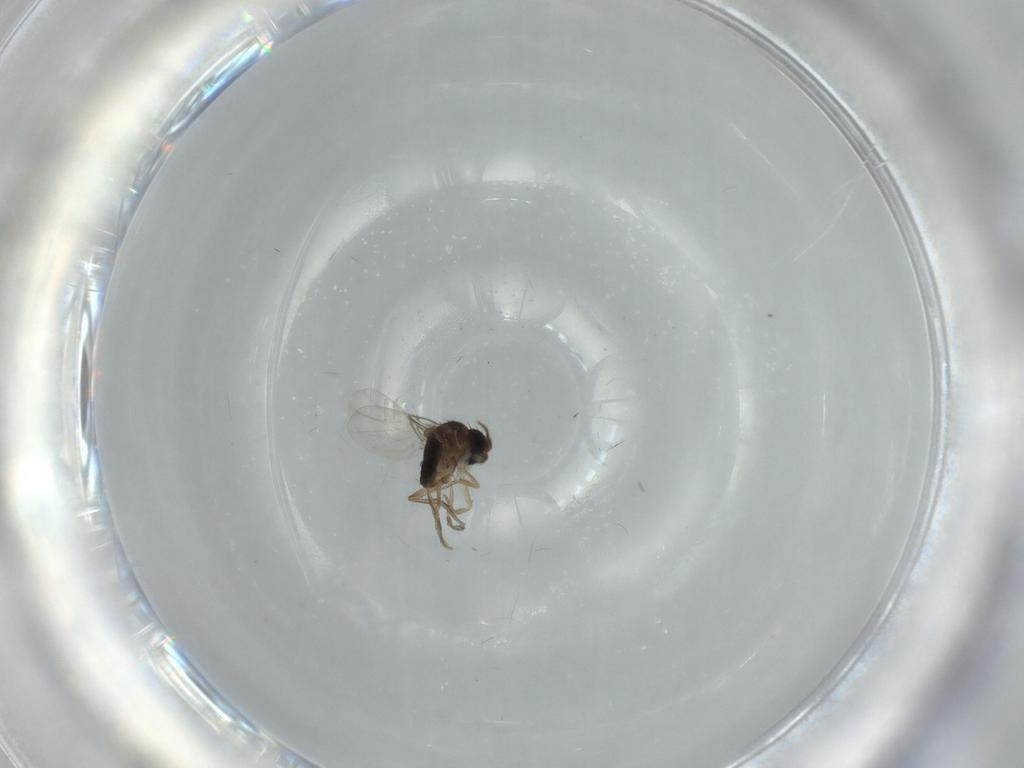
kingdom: Animalia
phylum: Arthropoda
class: Insecta
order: Diptera
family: Phoridae
